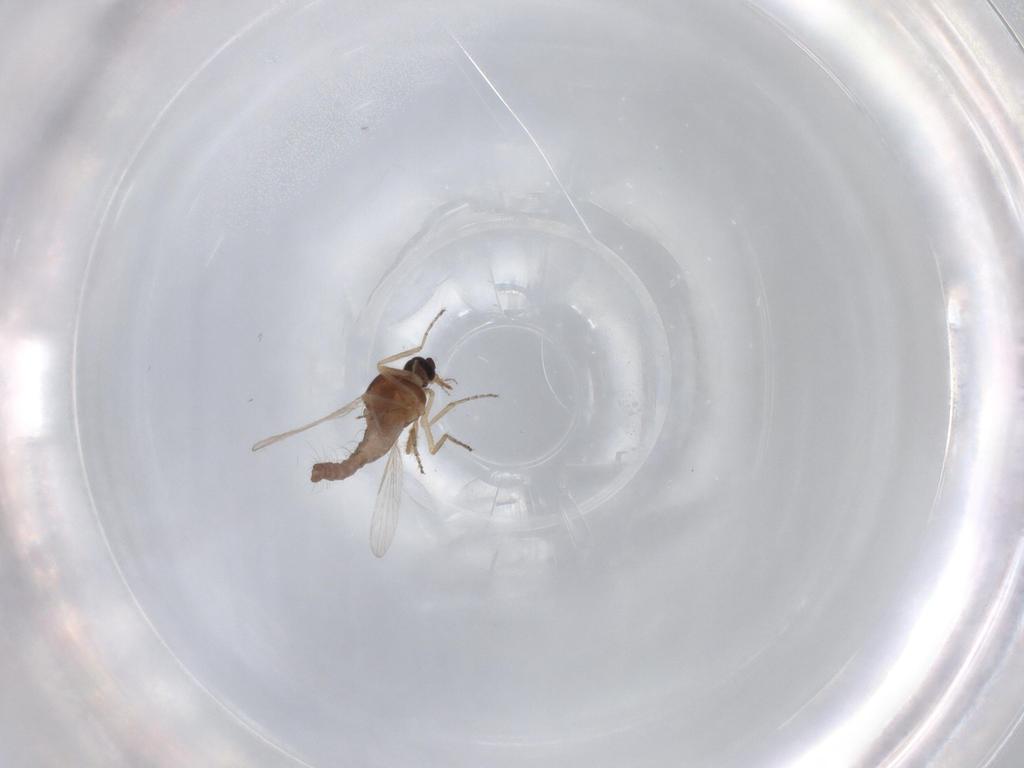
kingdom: Animalia
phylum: Arthropoda
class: Insecta
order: Diptera
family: Ceratopogonidae
